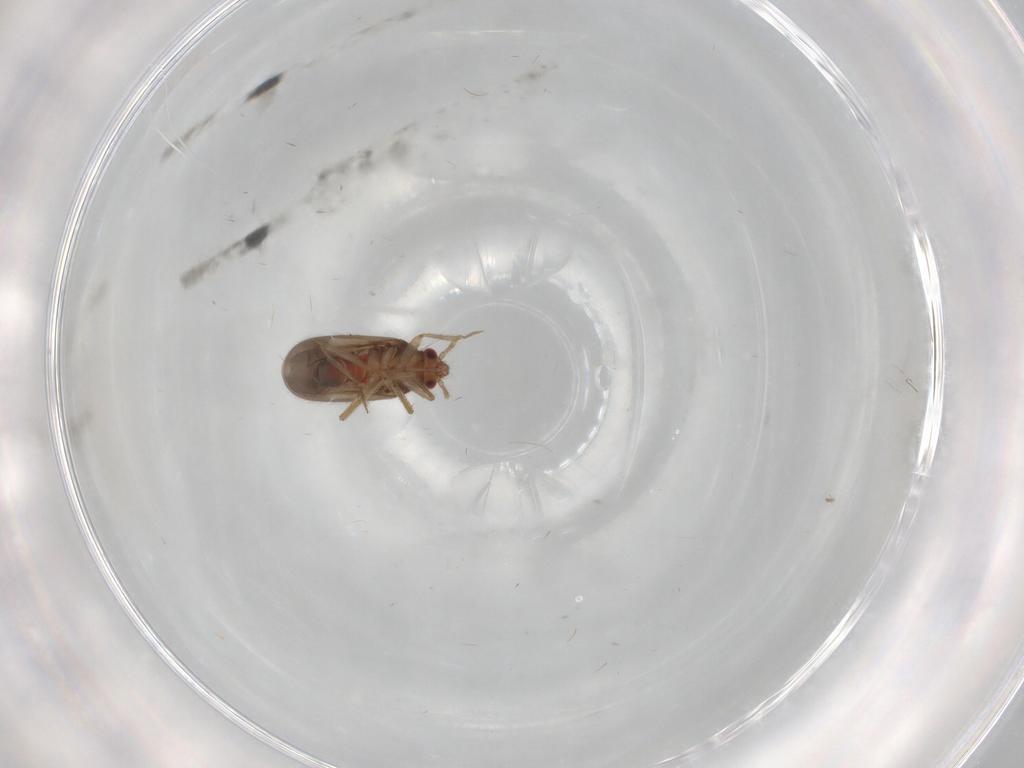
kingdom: Animalia
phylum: Arthropoda
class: Insecta
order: Hemiptera
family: Ceratocombidae
